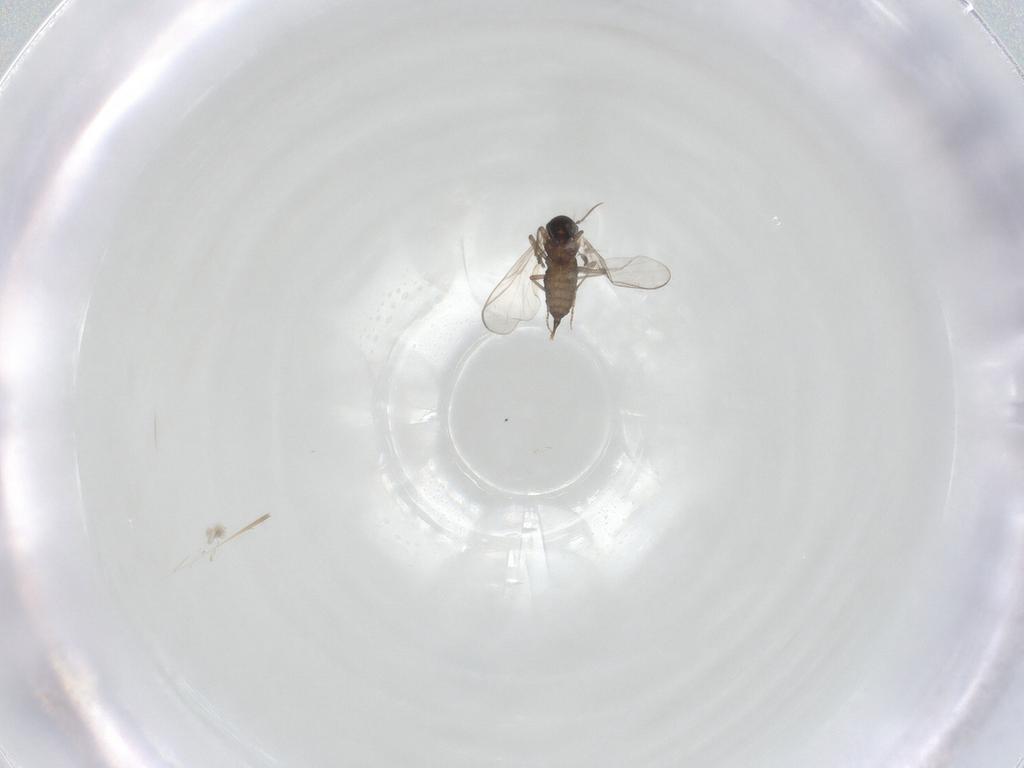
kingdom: Animalia
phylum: Arthropoda
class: Insecta
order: Diptera
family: Chironomidae
